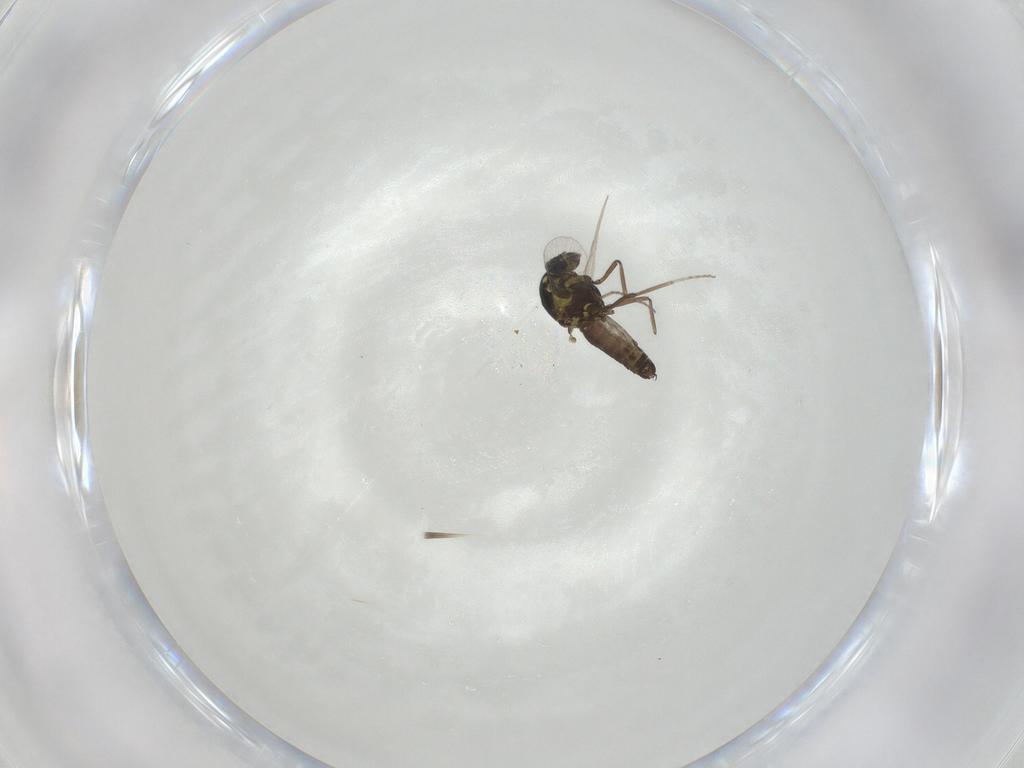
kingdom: Animalia
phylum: Arthropoda
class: Insecta
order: Diptera
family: Ceratopogonidae
